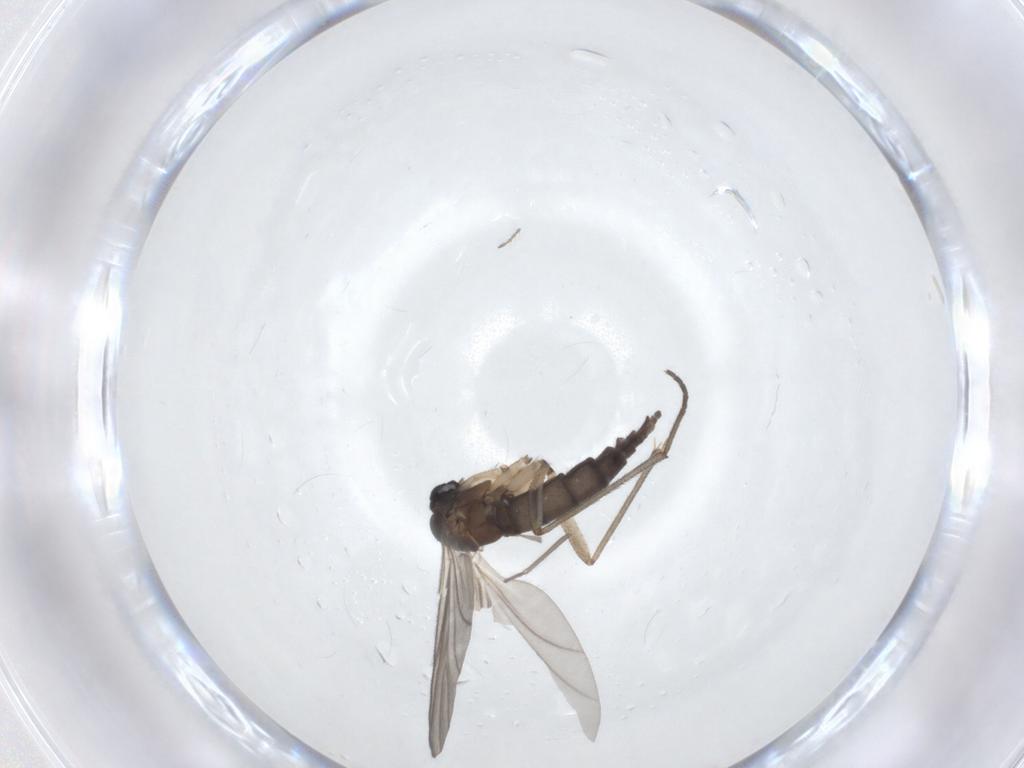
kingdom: Animalia
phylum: Arthropoda
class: Insecta
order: Diptera
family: Sciaridae
